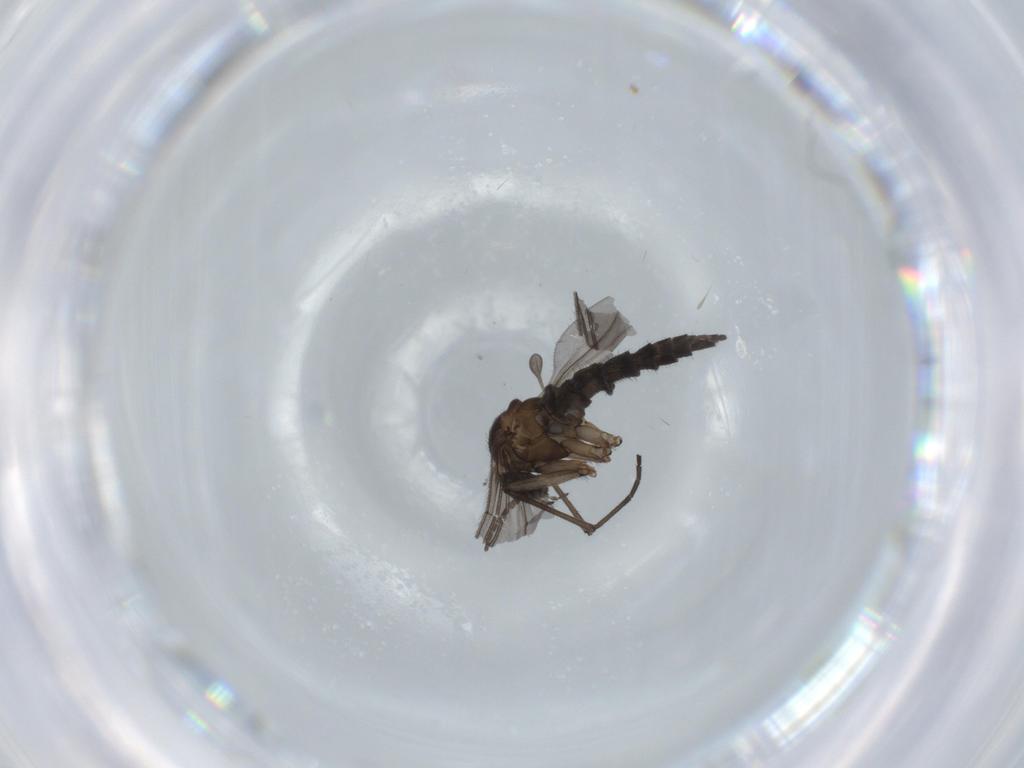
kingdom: Animalia
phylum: Arthropoda
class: Insecta
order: Diptera
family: Sciaridae
